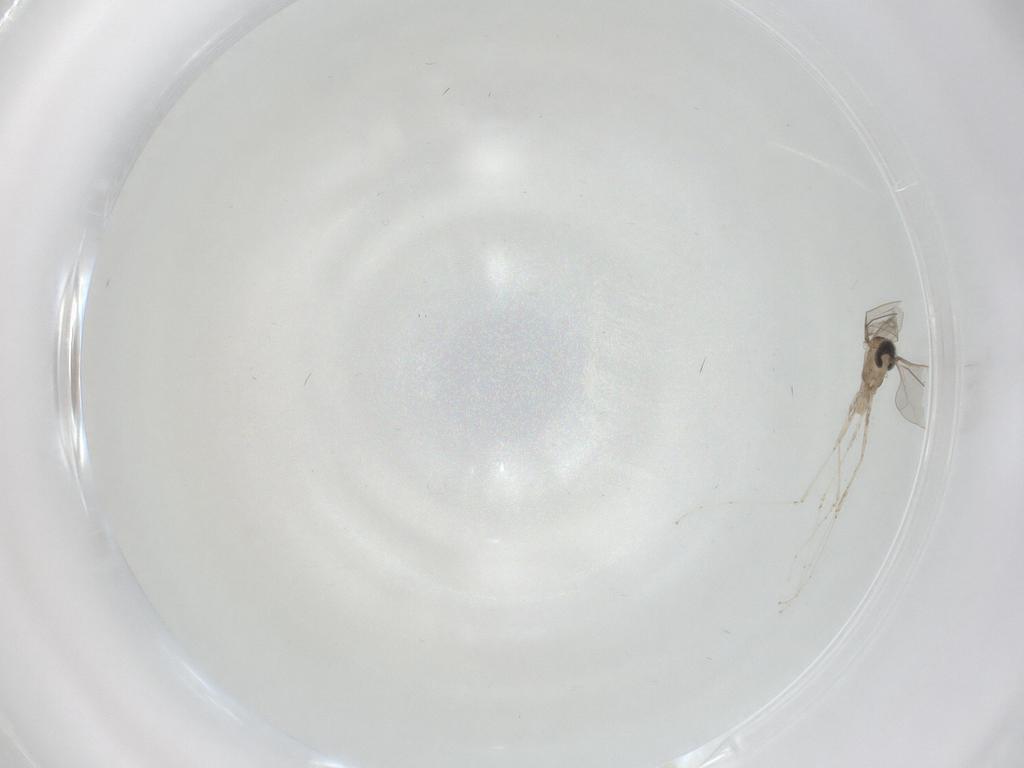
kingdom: Animalia
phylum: Arthropoda
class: Insecta
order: Diptera
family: Cecidomyiidae
